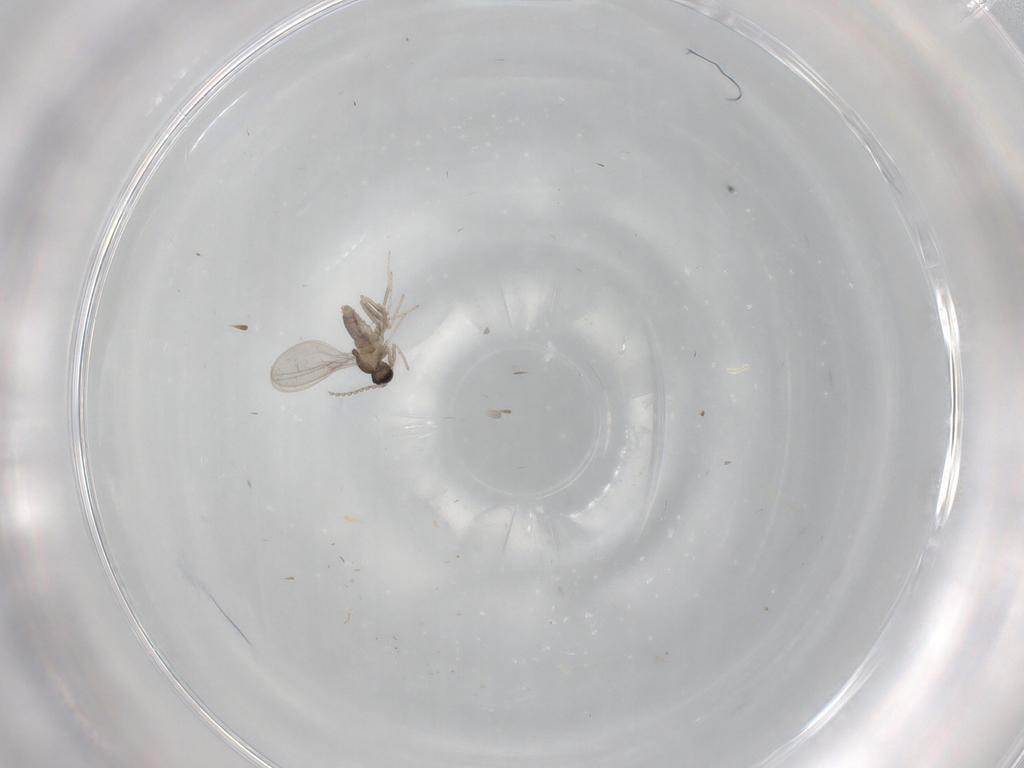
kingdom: Animalia
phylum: Arthropoda
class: Insecta
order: Diptera
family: Cecidomyiidae
